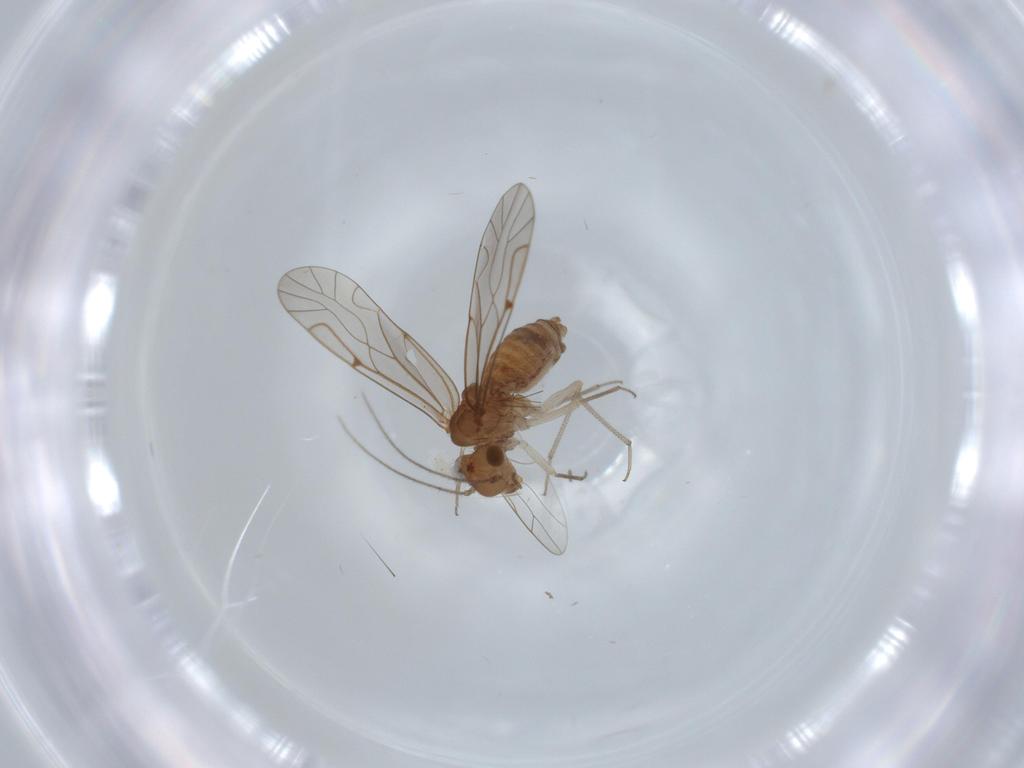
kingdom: Animalia
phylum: Arthropoda
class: Insecta
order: Psocodea
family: Lachesillidae
